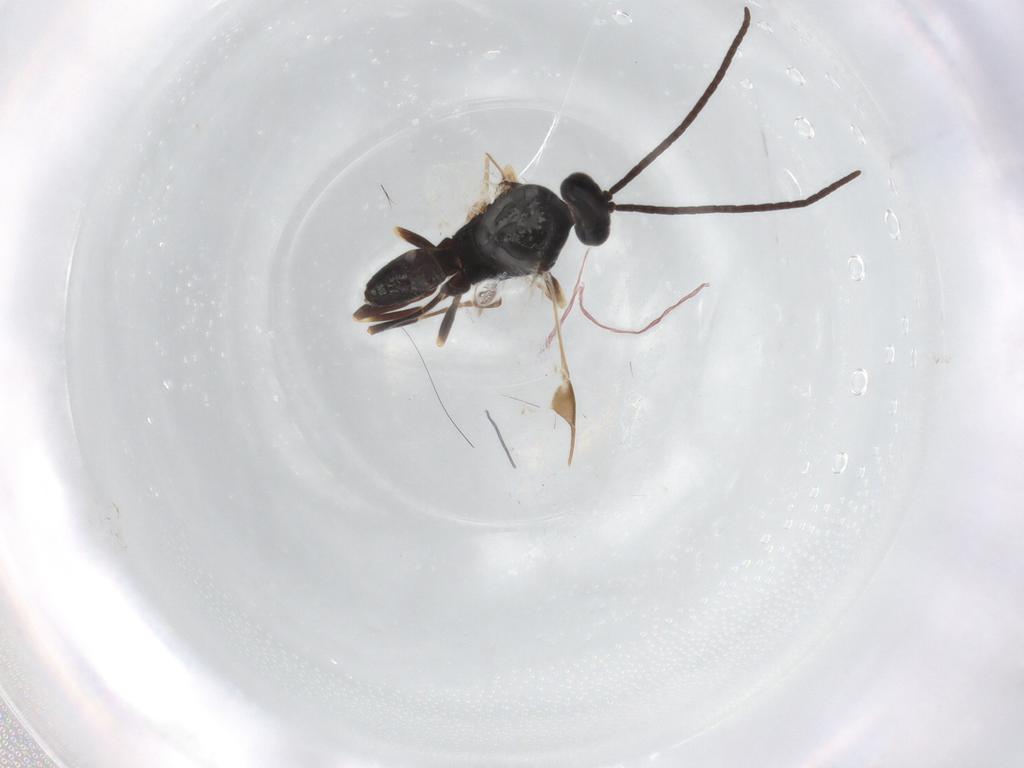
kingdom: Animalia
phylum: Arthropoda
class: Insecta
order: Hymenoptera
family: Braconidae
